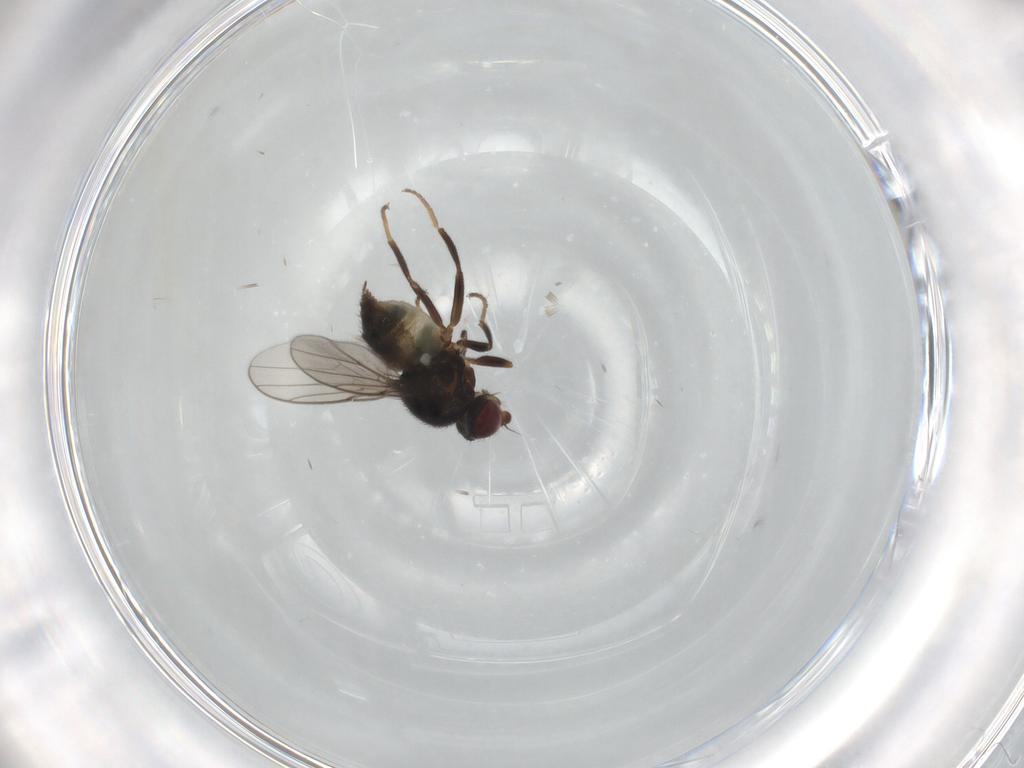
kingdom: Animalia
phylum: Arthropoda
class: Insecta
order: Diptera
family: Chloropidae
